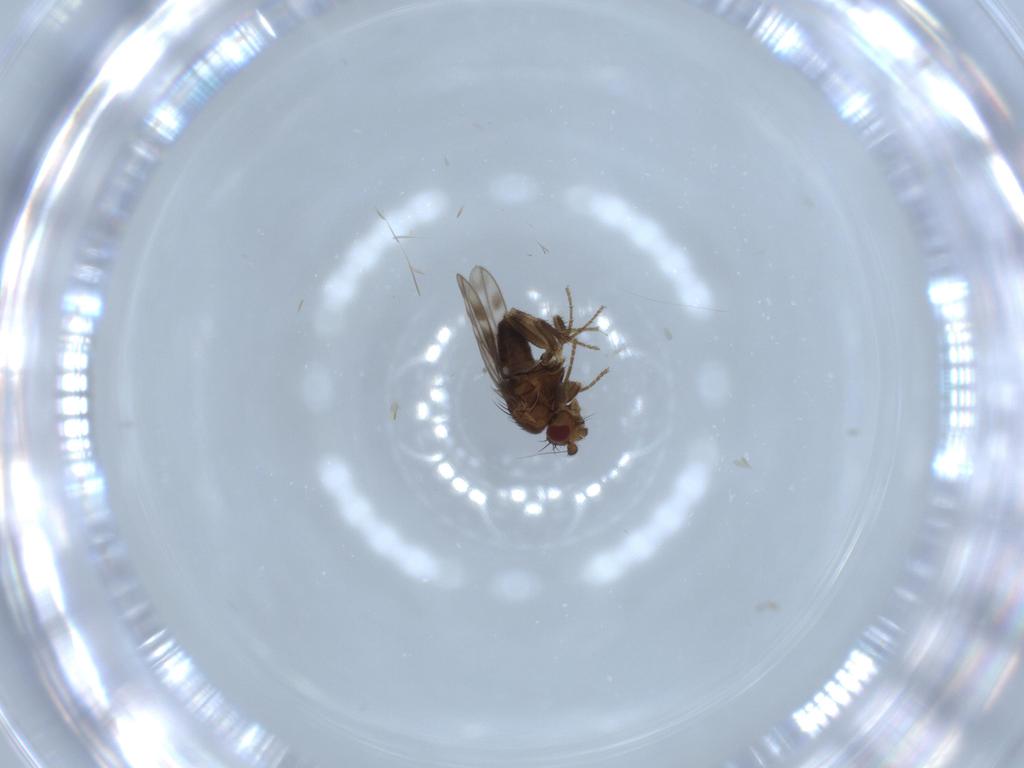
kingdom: Animalia
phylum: Arthropoda
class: Insecta
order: Diptera
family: Sphaeroceridae
